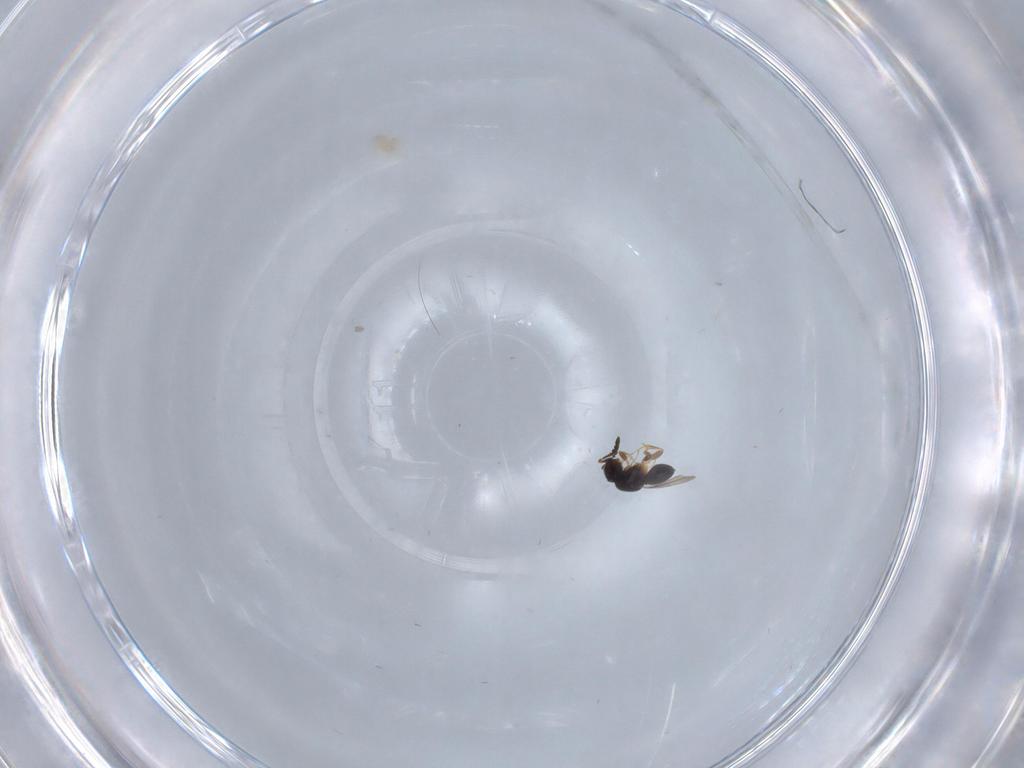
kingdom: Animalia
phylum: Arthropoda
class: Insecta
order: Hymenoptera
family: Ceraphronidae
